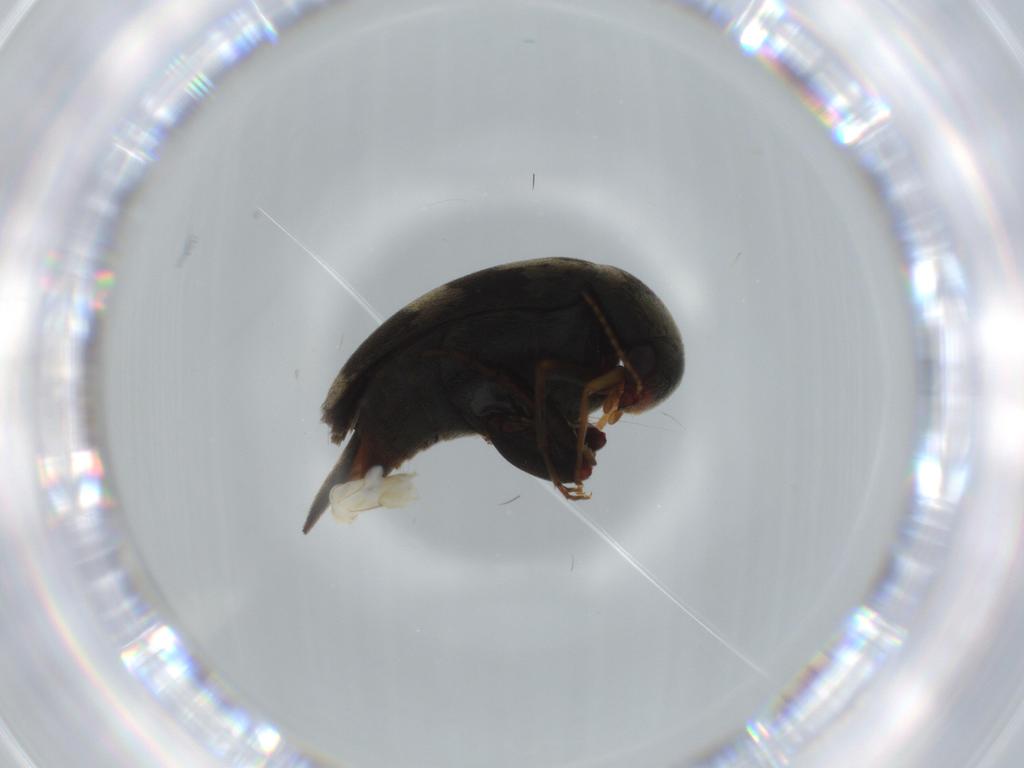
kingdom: Animalia
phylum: Arthropoda
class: Insecta
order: Coleoptera
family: Mordellidae
